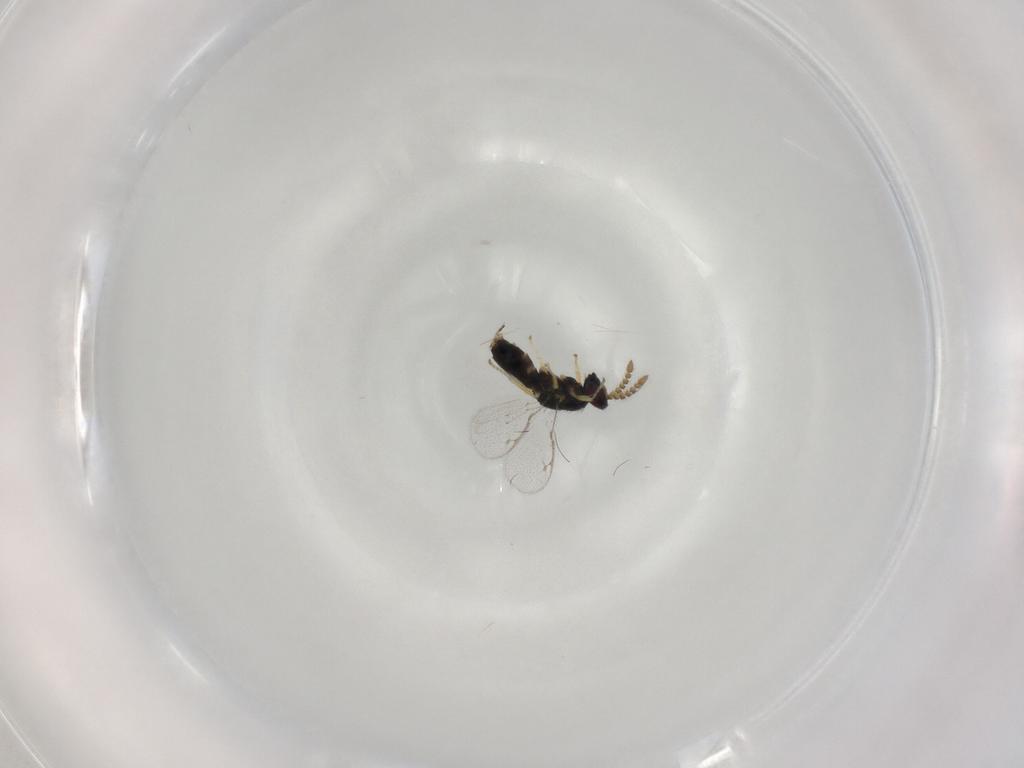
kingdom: Animalia
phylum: Arthropoda
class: Insecta
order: Hymenoptera
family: Pirenidae
